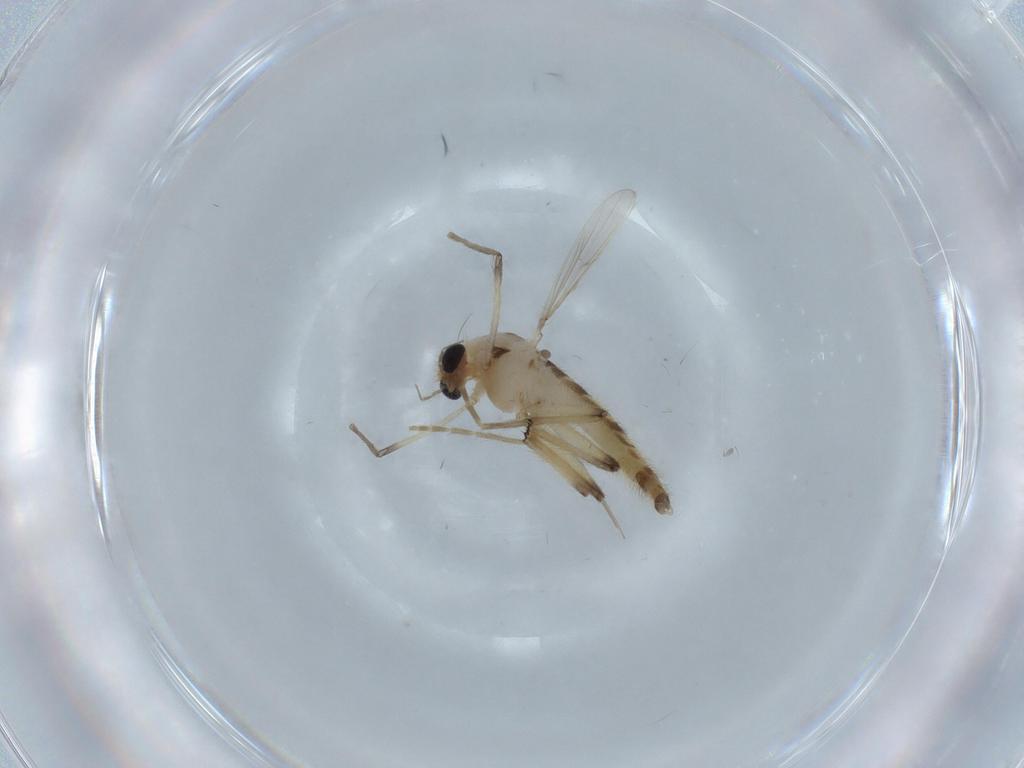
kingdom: Animalia
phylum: Arthropoda
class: Insecta
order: Diptera
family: Chironomidae
